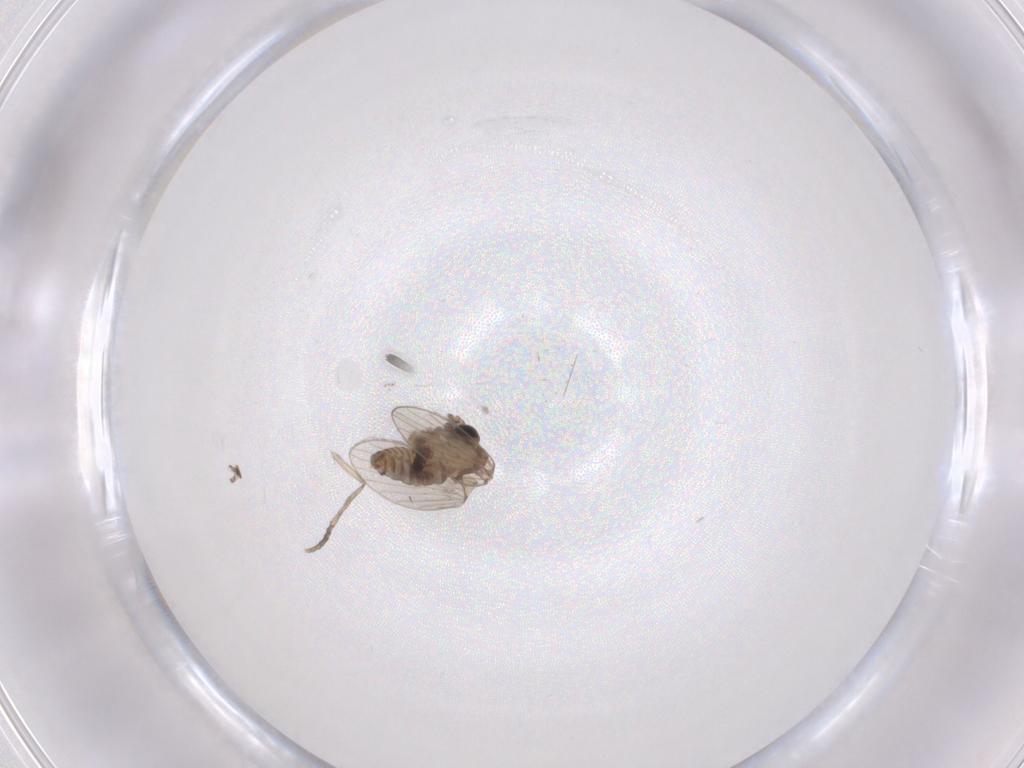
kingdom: Animalia
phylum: Arthropoda
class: Insecta
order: Diptera
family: Psychodidae
